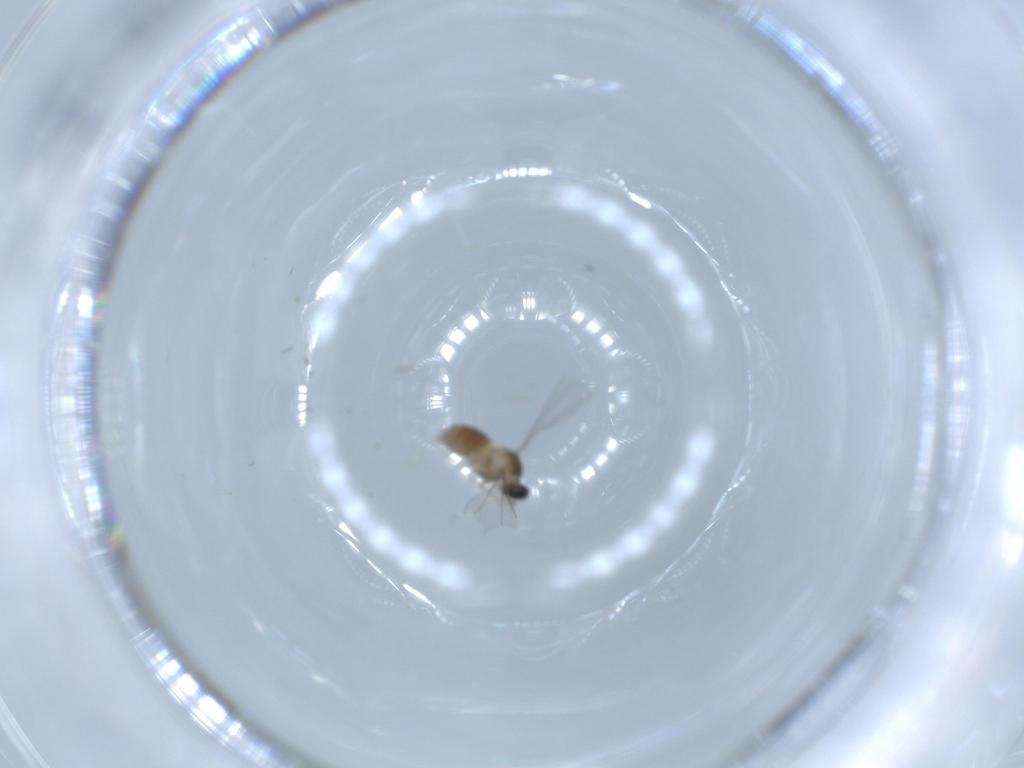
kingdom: Animalia
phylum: Arthropoda
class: Insecta
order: Diptera
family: Cecidomyiidae
